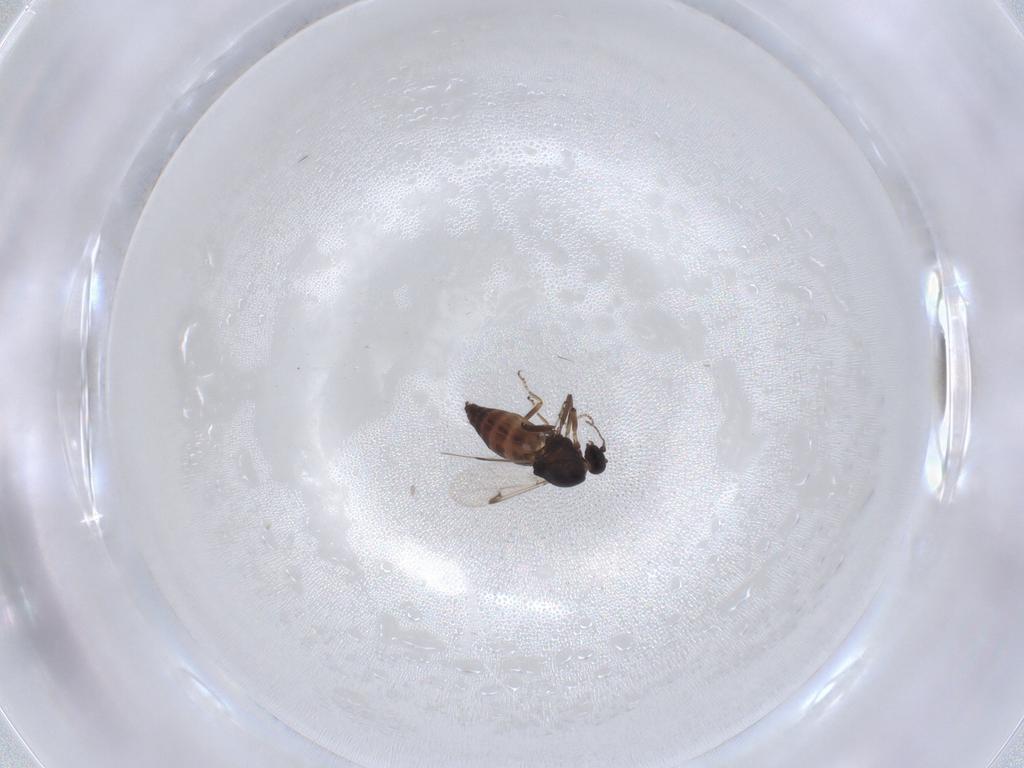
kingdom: Animalia
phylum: Arthropoda
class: Insecta
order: Diptera
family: Ceratopogonidae
